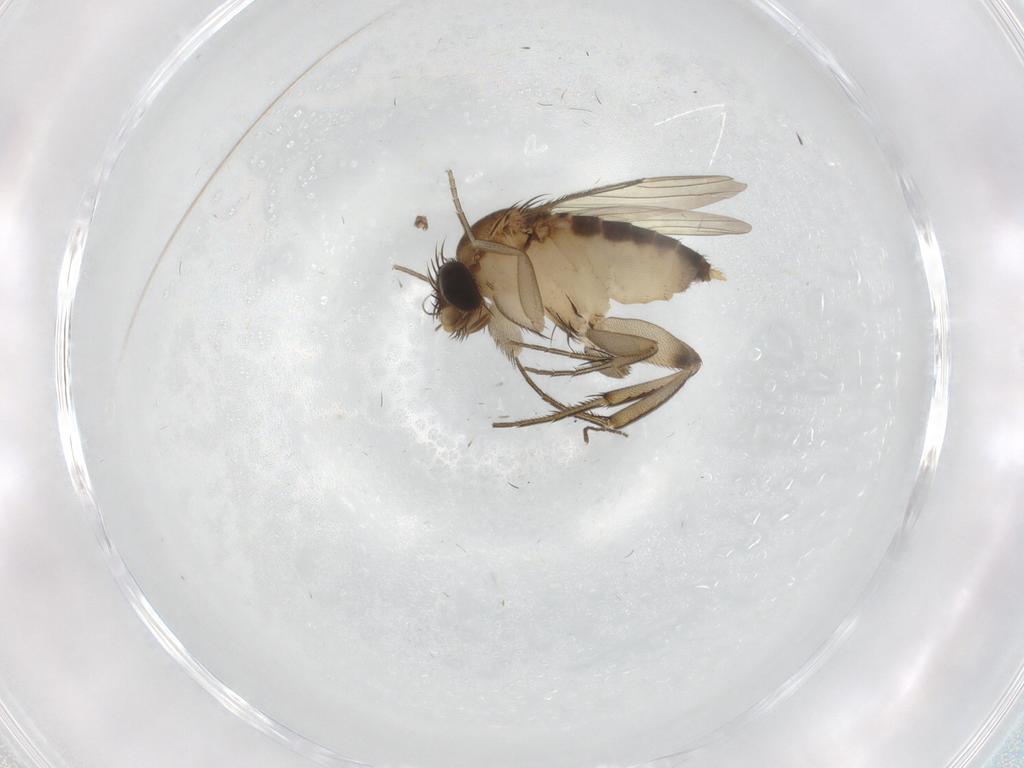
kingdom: Animalia
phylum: Arthropoda
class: Insecta
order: Diptera
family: Phoridae
